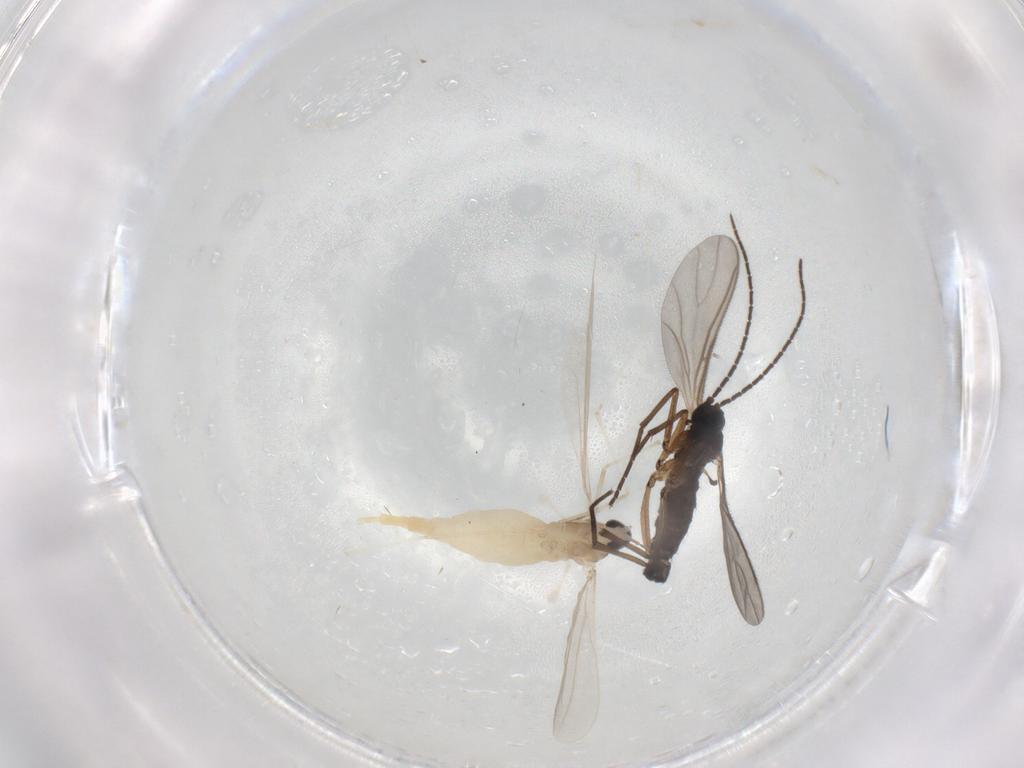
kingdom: Animalia
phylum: Arthropoda
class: Insecta
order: Diptera
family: Cecidomyiidae
